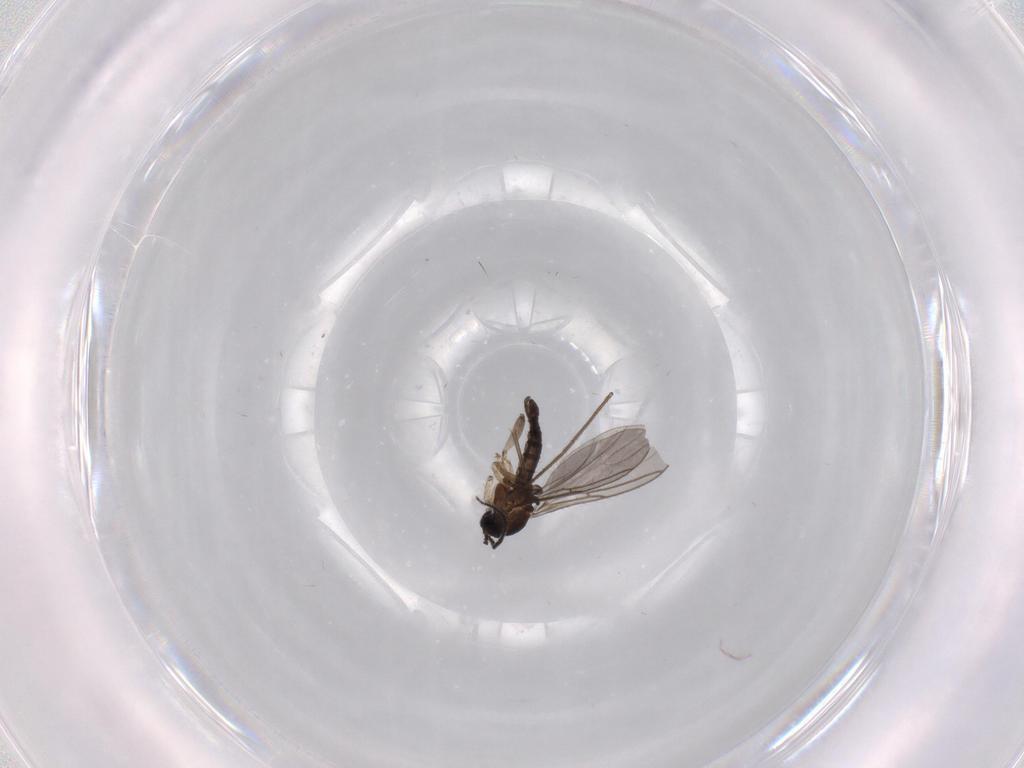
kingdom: Animalia
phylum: Arthropoda
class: Insecta
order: Diptera
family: Sciaridae
